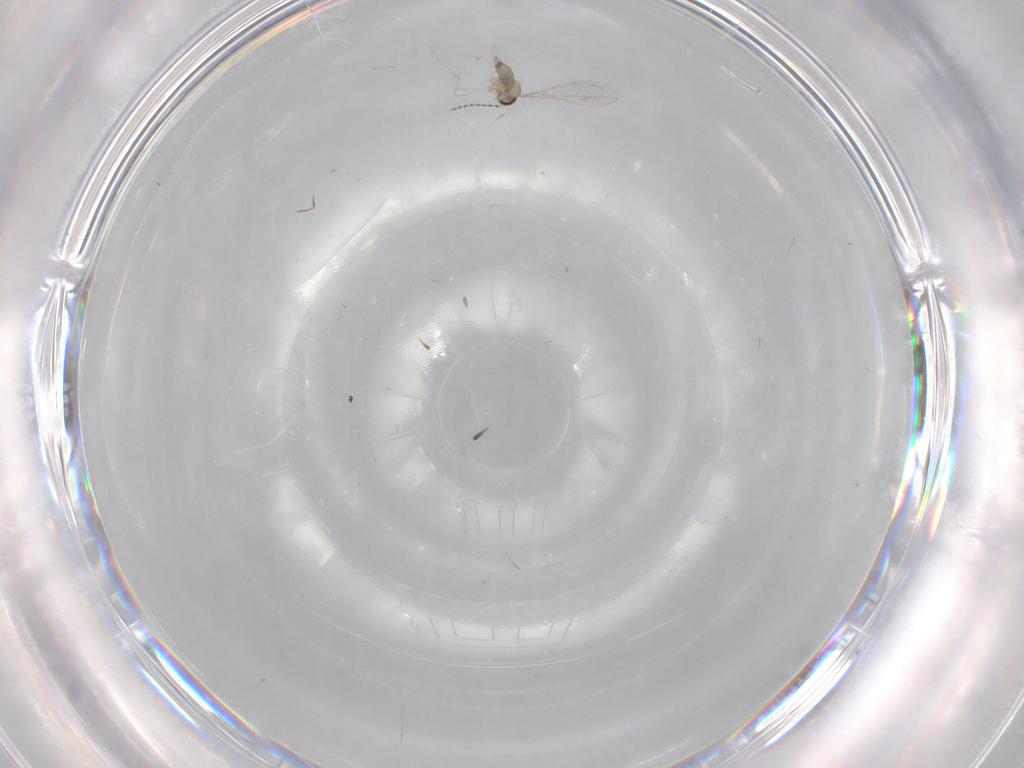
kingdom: Animalia
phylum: Arthropoda
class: Insecta
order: Diptera
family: Cecidomyiidae
